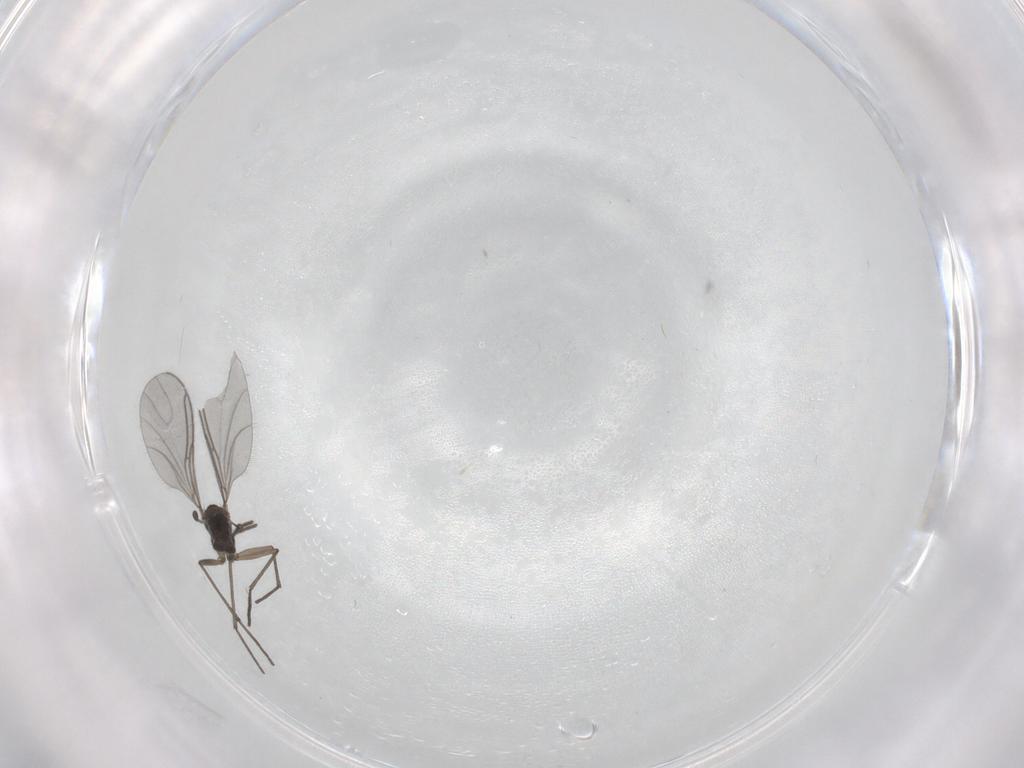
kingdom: Animalia
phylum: Arthropoda
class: Insecta
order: Diptera
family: Sciaridae
